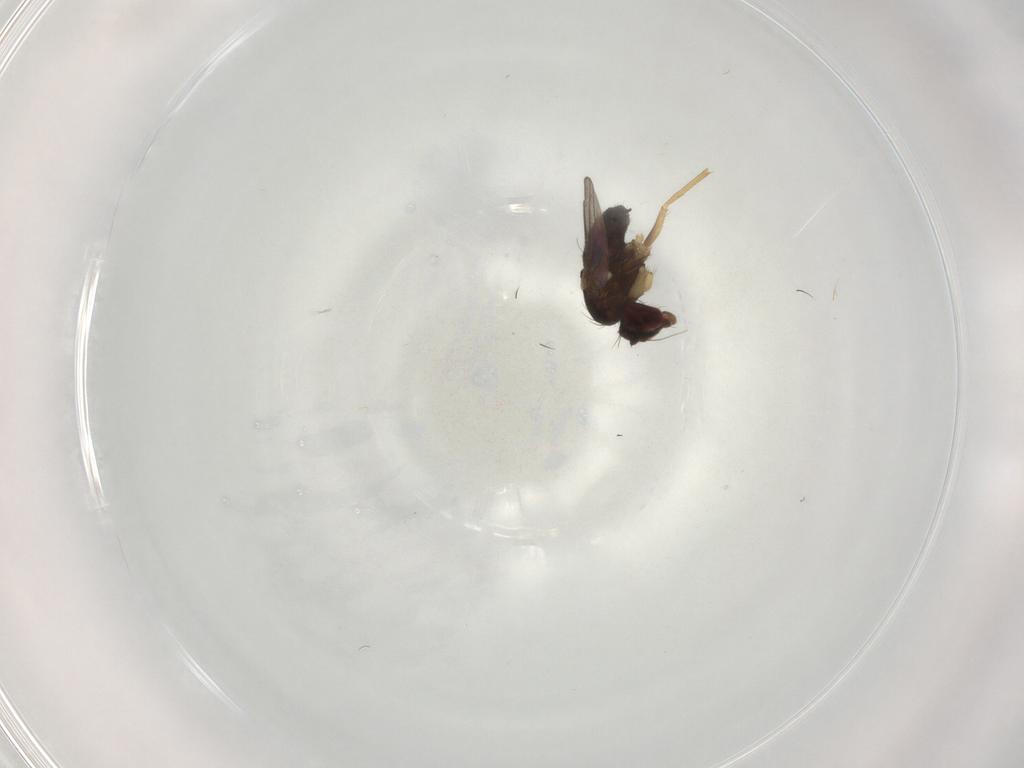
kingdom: Animalia
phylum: Arthropoda
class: Insecta
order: Diptera
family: Dolichopodidae
